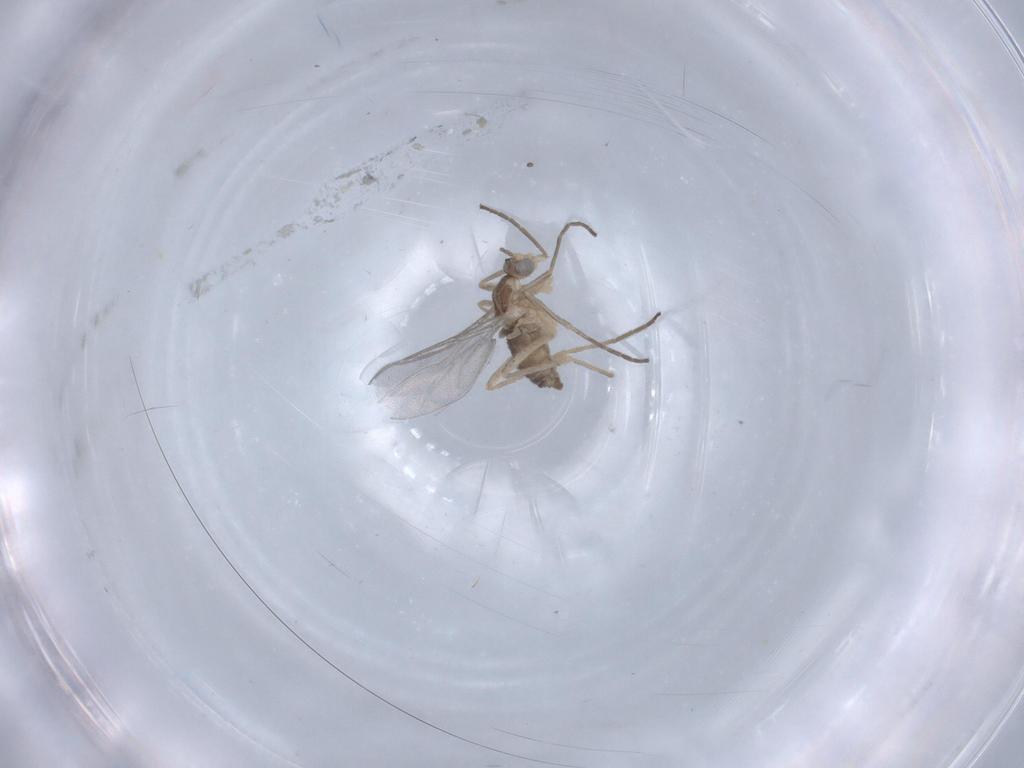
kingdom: Animalia
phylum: Arthropoda
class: Insecta
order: Diptera
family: Cecidomyiidae
